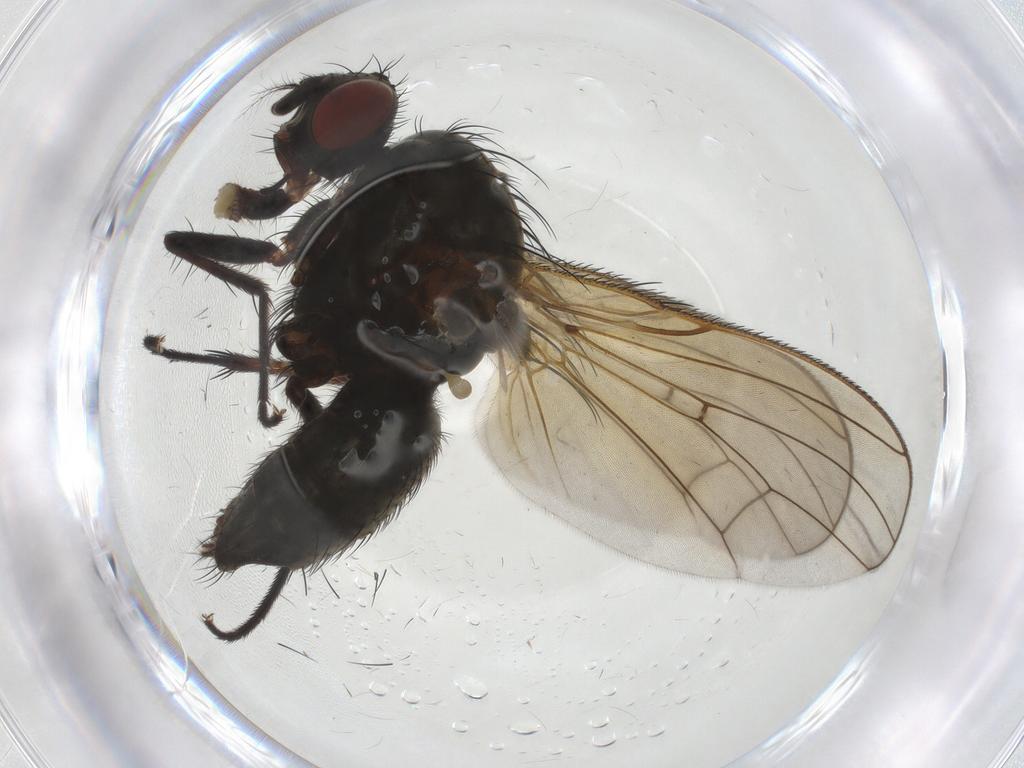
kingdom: Animalia
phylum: Arthropoda
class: Insecta
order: Diptera
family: Anthomyiidae
